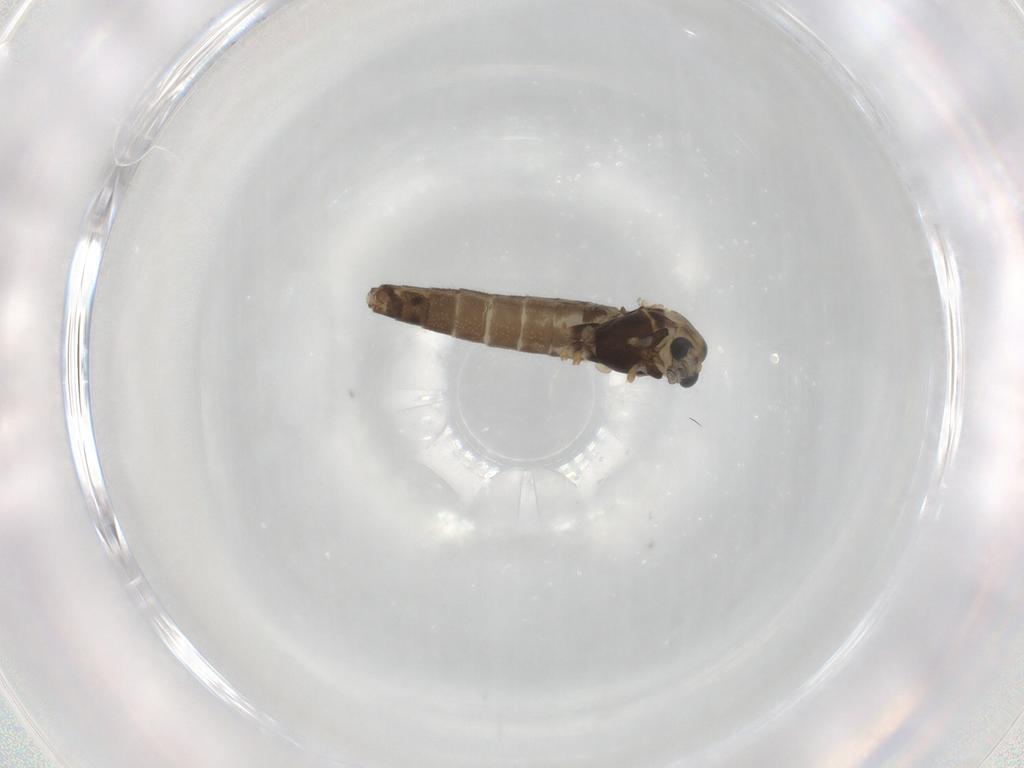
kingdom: Animalia
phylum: Arthropoda
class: Insecta
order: Diptera
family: Chironomidae
